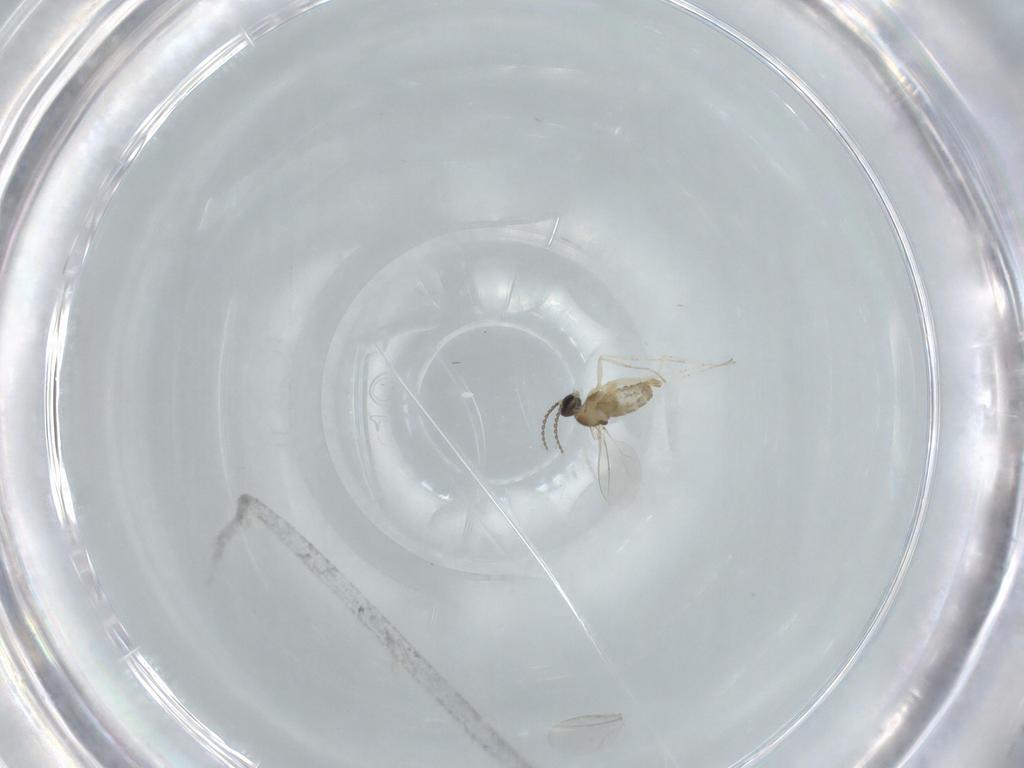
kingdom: Animalia
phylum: Arthropoda
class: Insecta
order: Diptera
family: Cecidomyiidae
